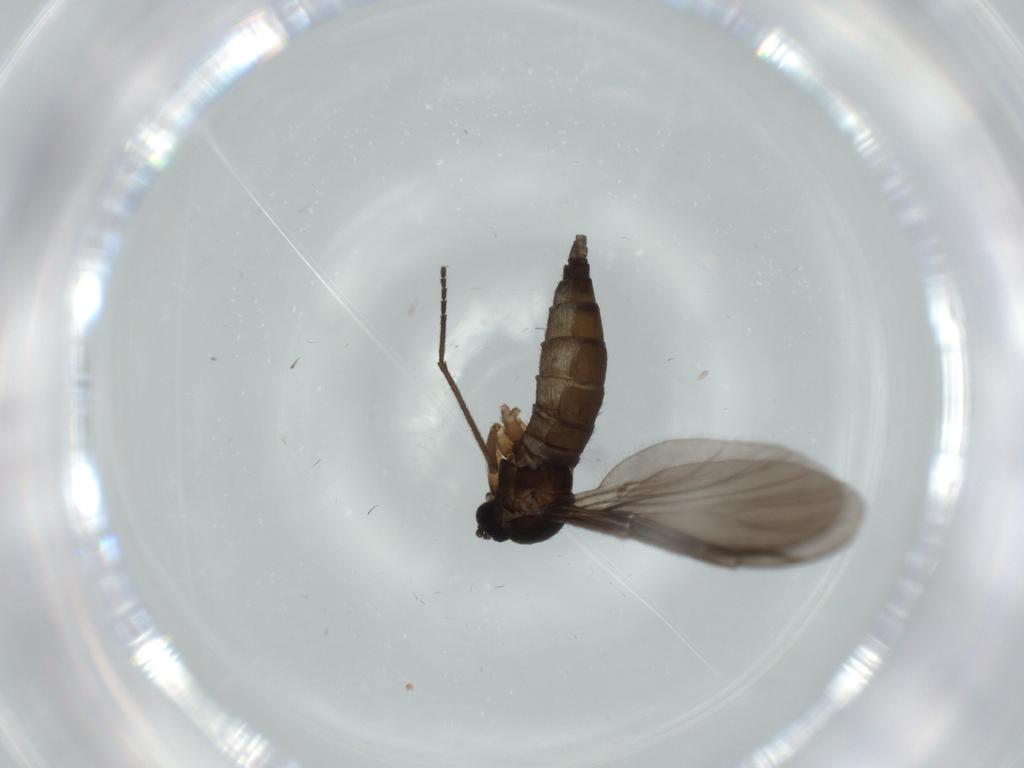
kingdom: Animalia
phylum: Arthropoda
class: Insecta
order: Diptera
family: Sciaridae
